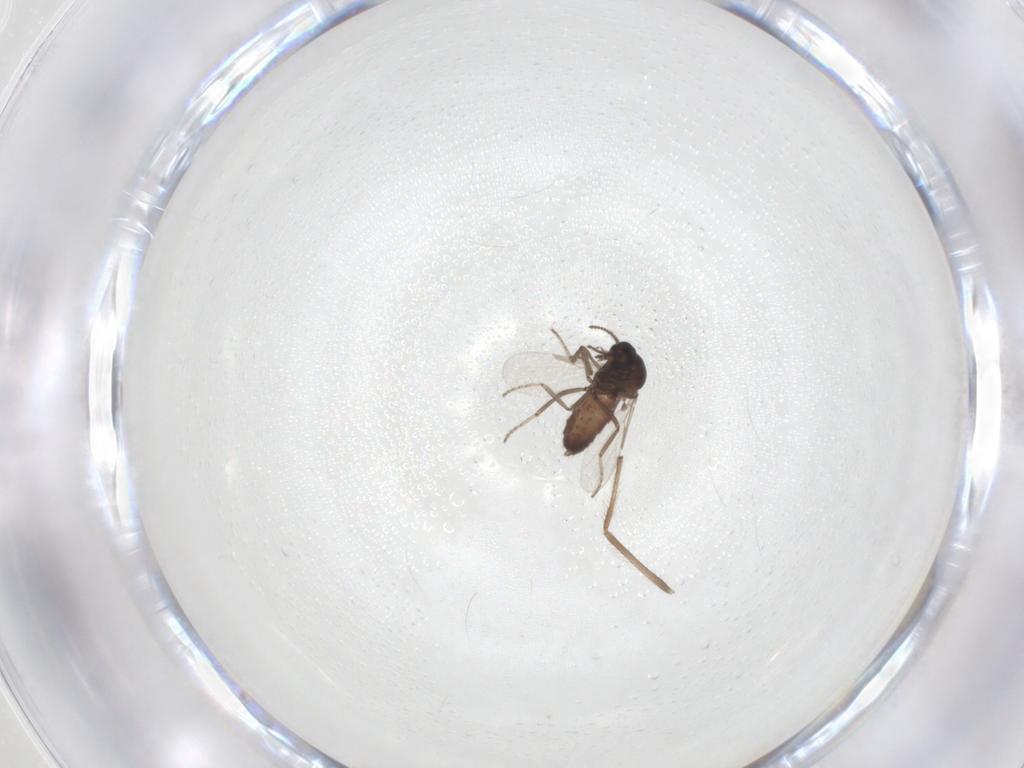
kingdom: Animalia
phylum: Arthropoda
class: Insecta
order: Diptera
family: Ceratopogonidae
